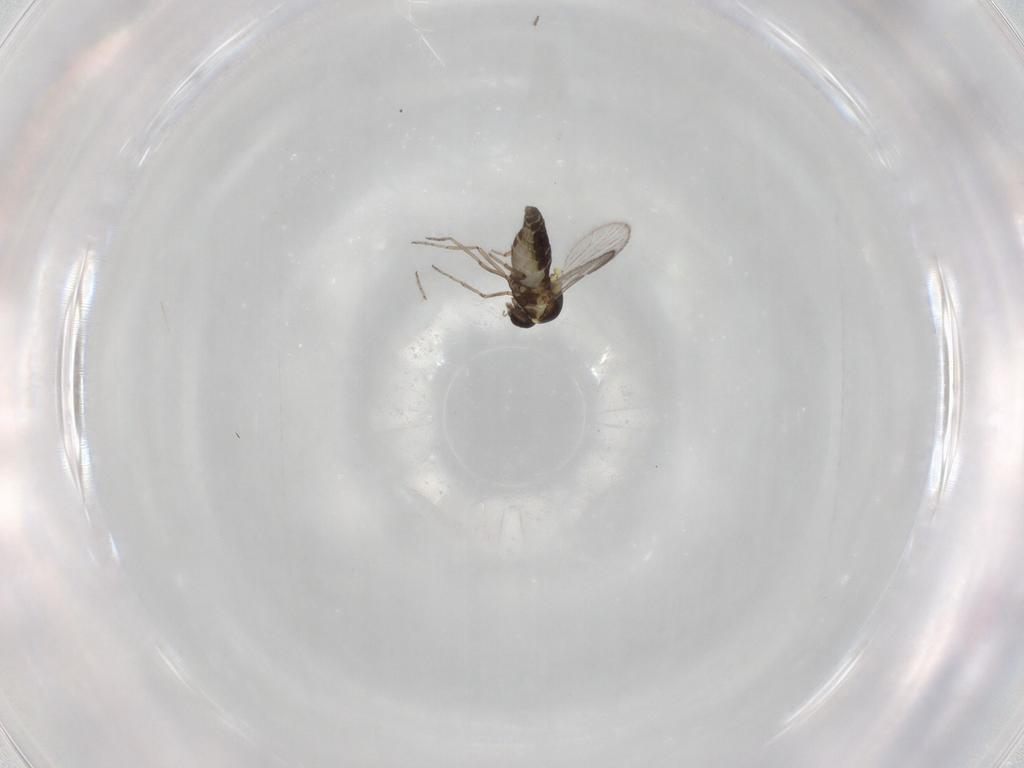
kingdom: Animalia
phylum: Arthropoda
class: Insecta
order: Diptera
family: Ceratopogonidae
